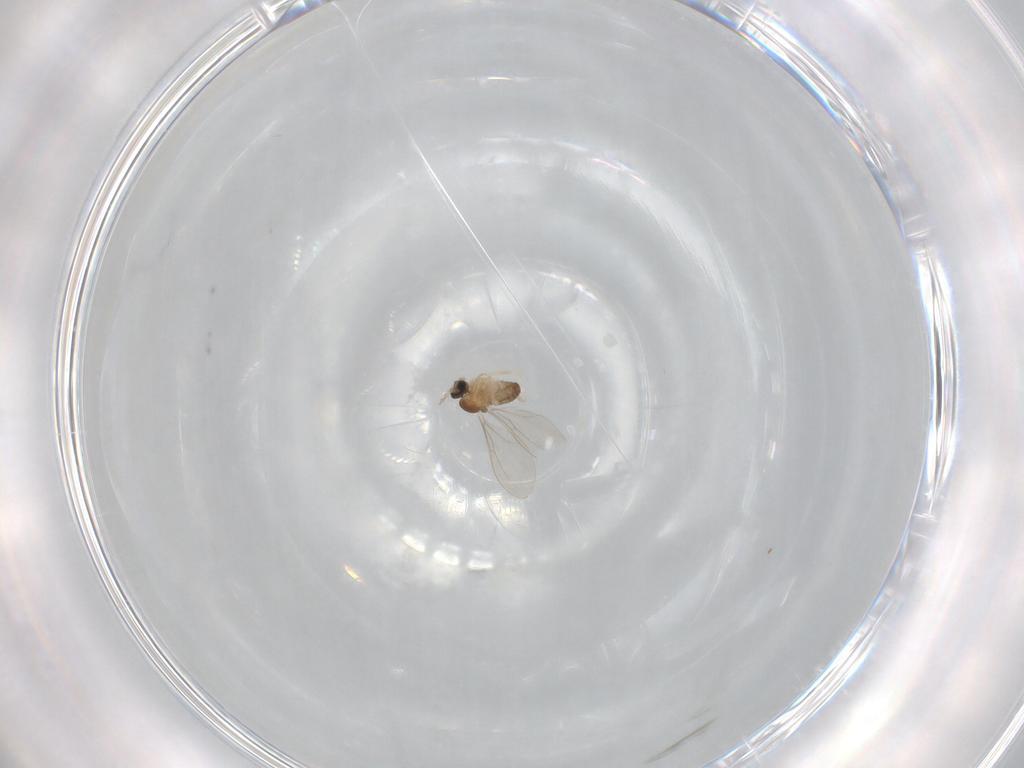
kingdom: Animalia
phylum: Arthropoda
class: Insecta
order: Diptera
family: Cecidomyiidae
